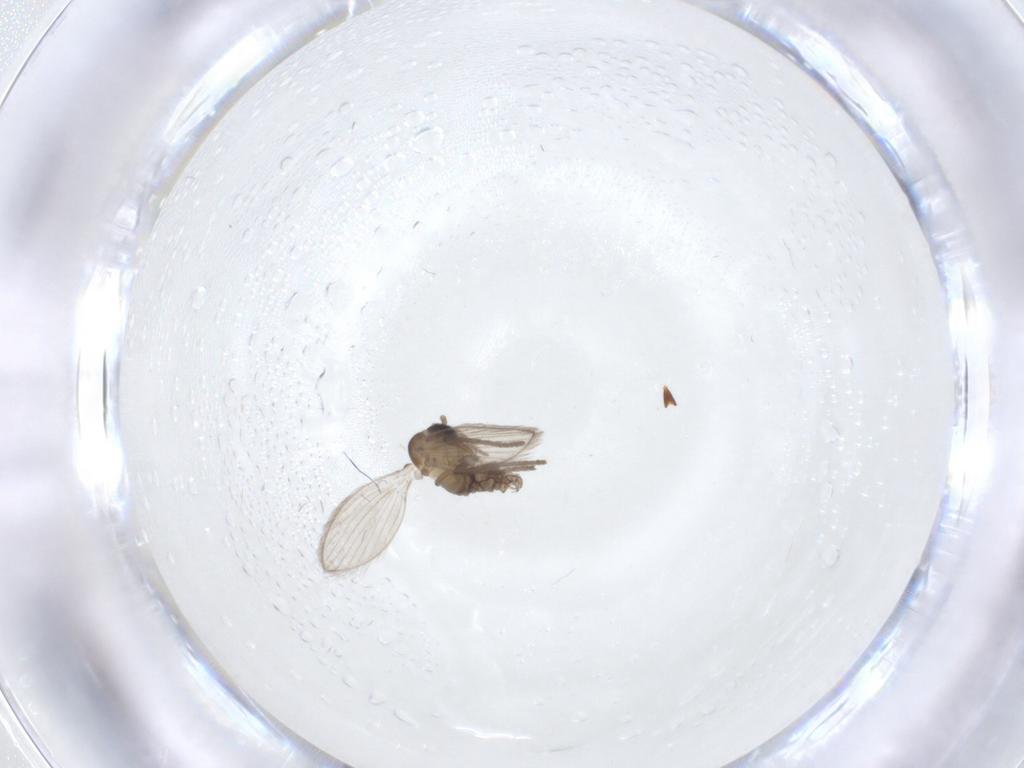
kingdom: Animalia
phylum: Arthropoda
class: Insecta
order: Diptera
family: Psychodidae
